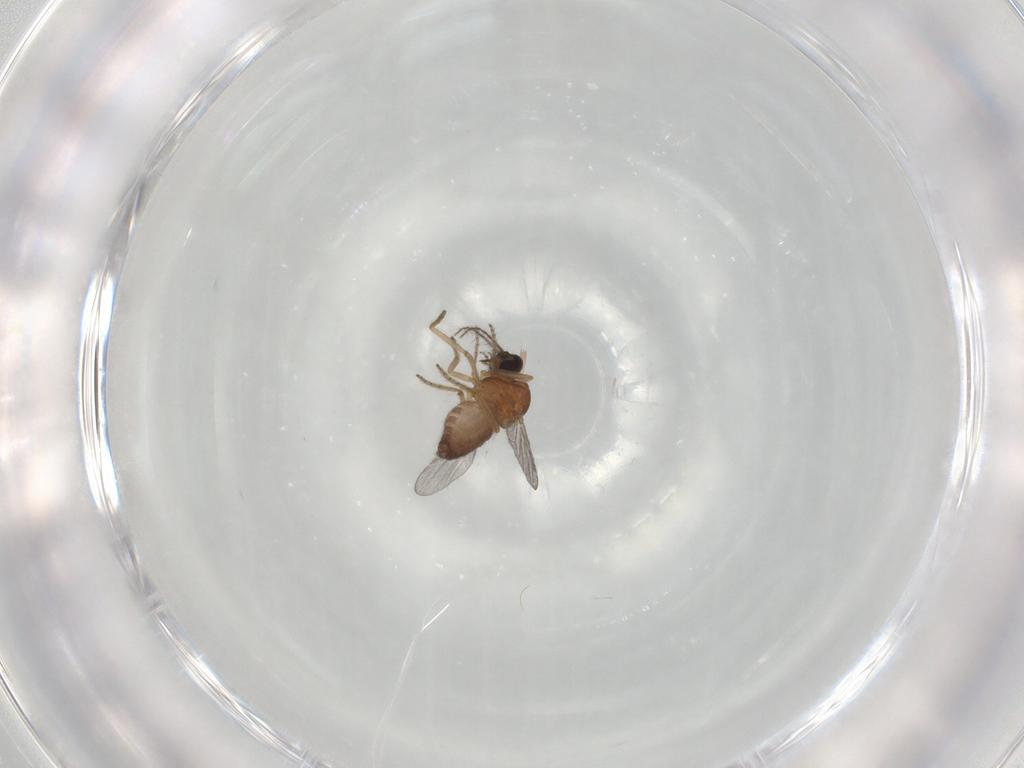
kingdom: Animalia
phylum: Arthropoda
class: Insecta
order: Diptera
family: Ceratopogonidae
